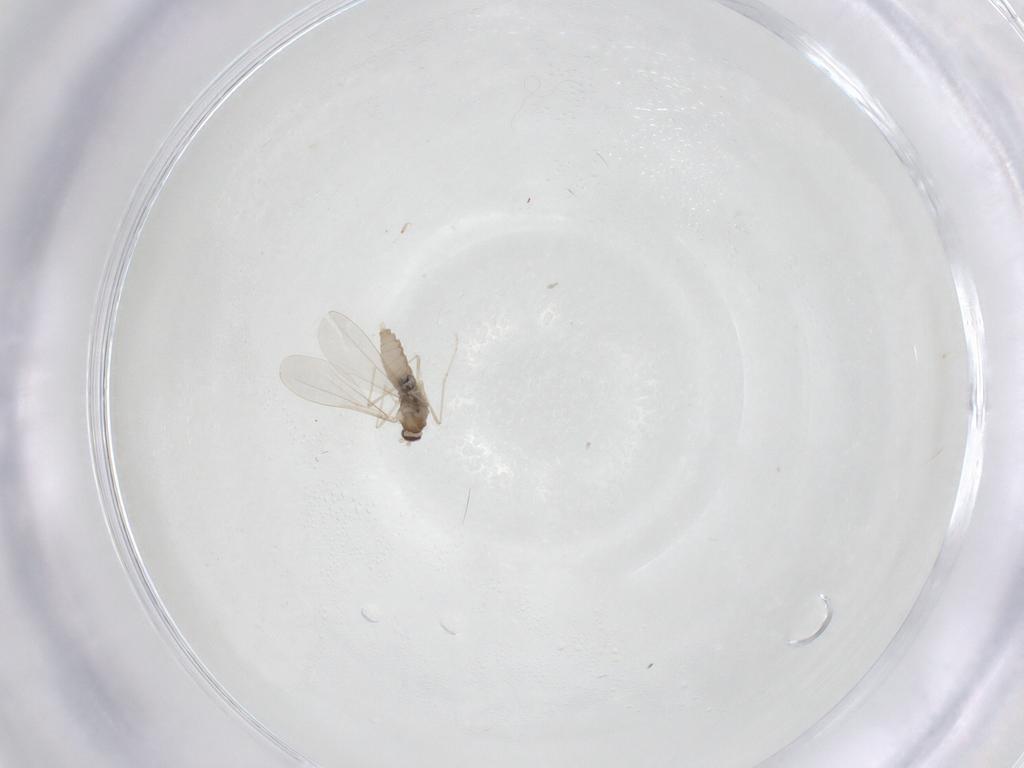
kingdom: Animalia
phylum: Arthropoda
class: Insecta
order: Diptera
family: Cecidomyiidae
